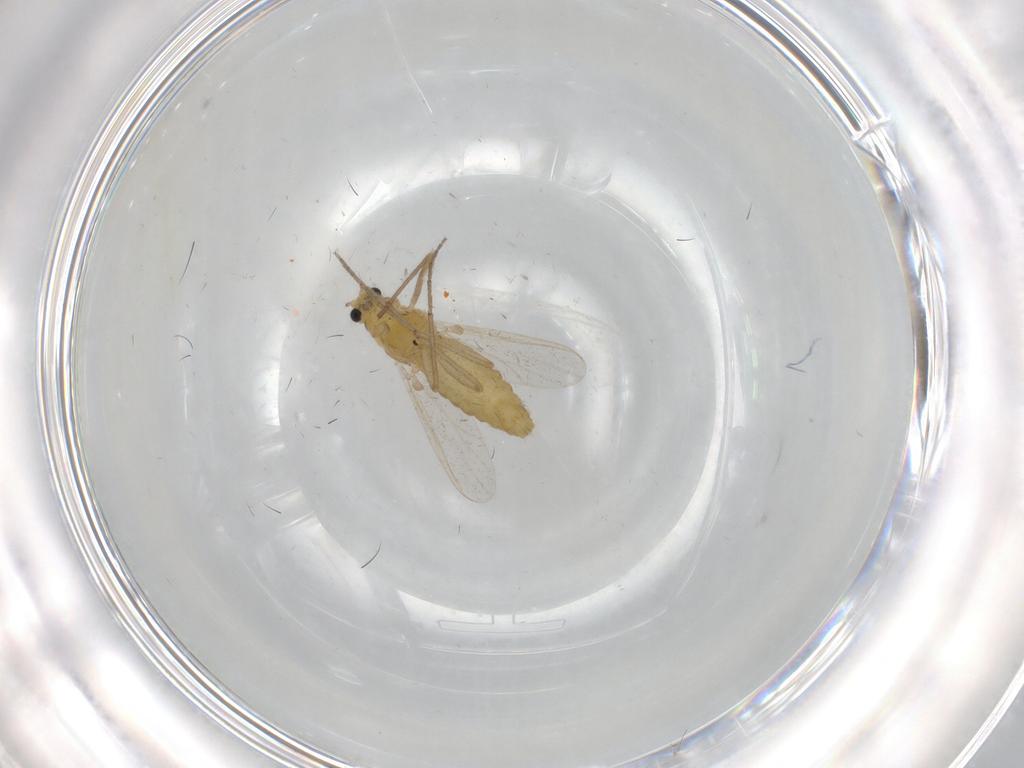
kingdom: Animalia
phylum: Arthropoda
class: Insecta
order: Diptera
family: Chironomidae
